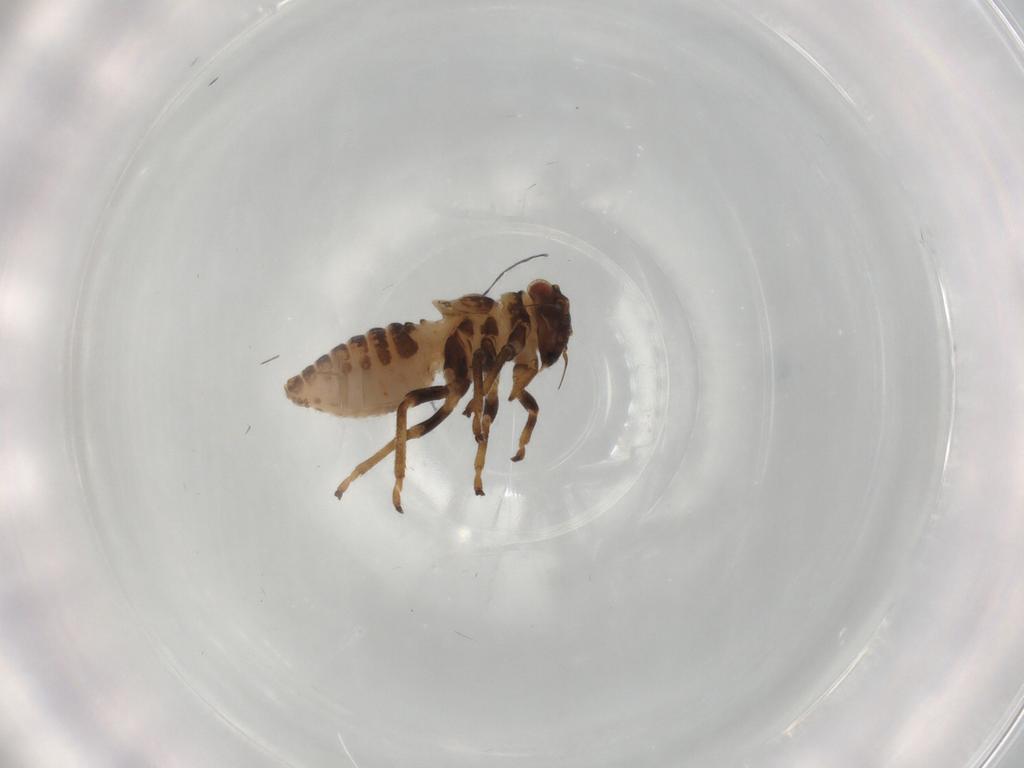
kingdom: Animalia
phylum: Arthropoda
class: Insecta
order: Hemiptera
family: Cicadellidae
